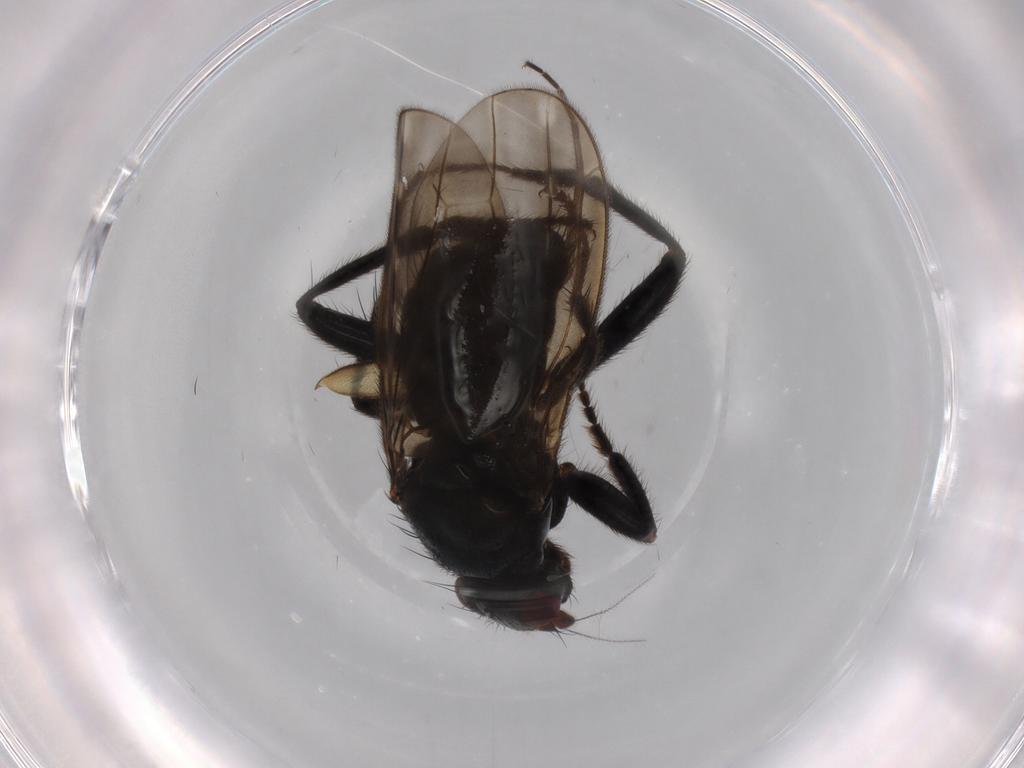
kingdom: Animalia
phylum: Arthropoda
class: Insecta
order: Diptera
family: Sphaeroceridae
